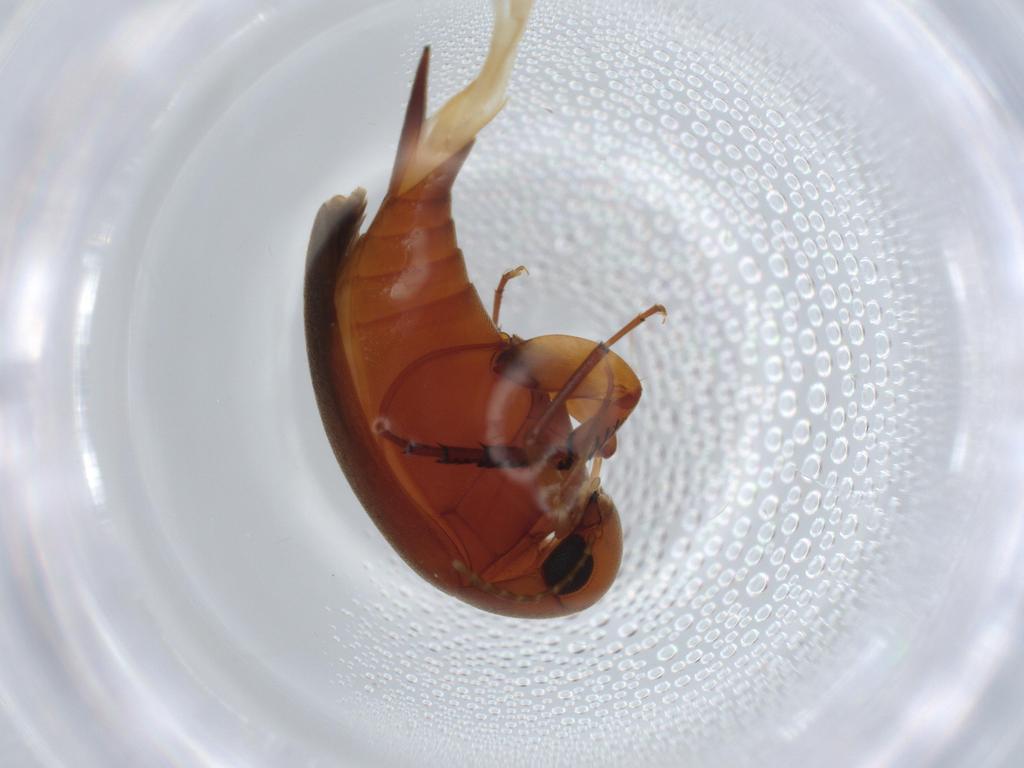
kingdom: Animalia
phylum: Arthropoda
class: Insecta
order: Coleoptera
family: Mordellidae
